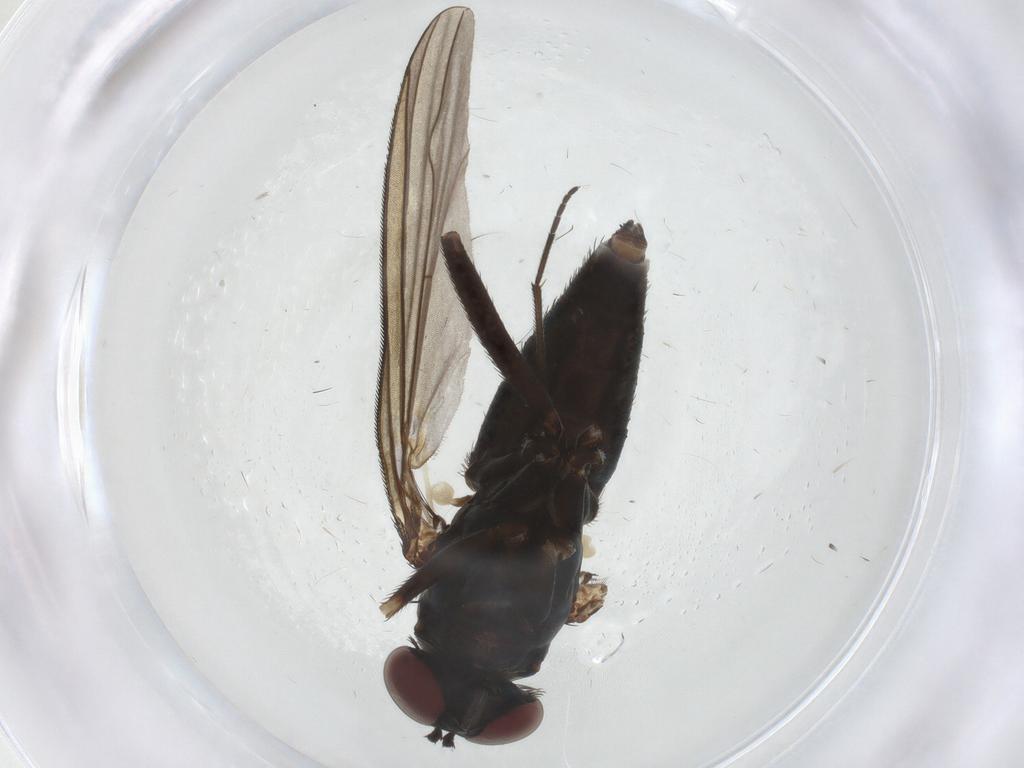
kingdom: Animalia
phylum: Arthropoda
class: Insecta
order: Diptera
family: Dolichopodidae
